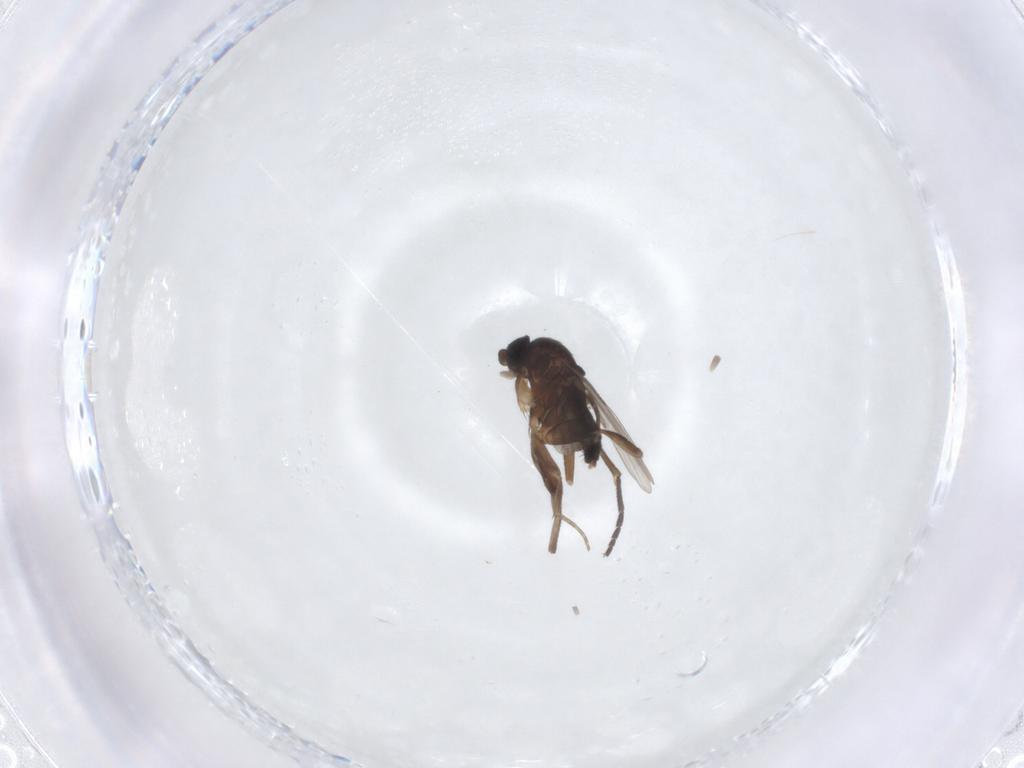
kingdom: Animalia
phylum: Arthropoda
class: Insecta
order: Diptera
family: Phoridae
